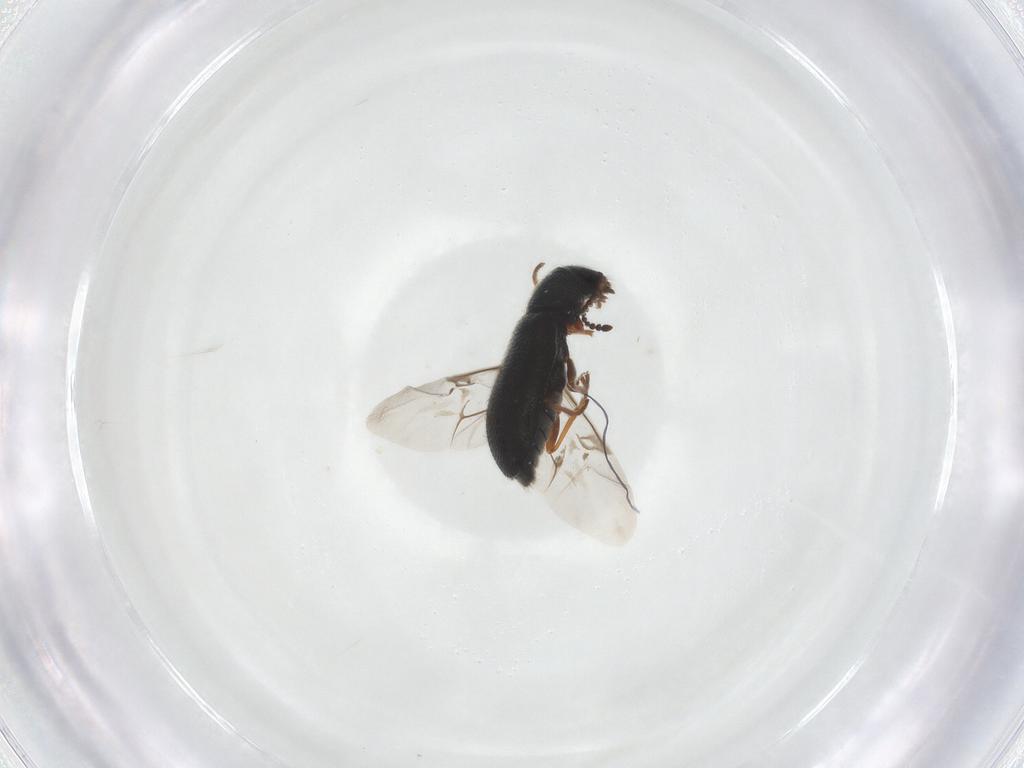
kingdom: Animalia
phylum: Arthropoda
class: Insecta
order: Coleoptera
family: Melyridae
